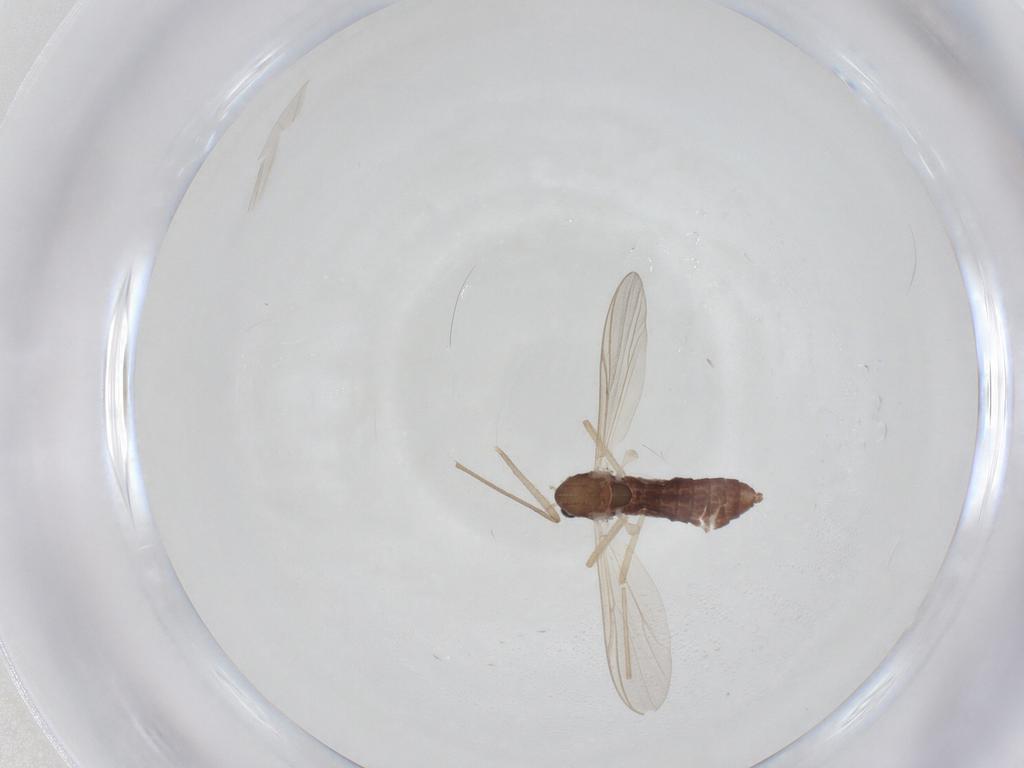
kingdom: Animalia
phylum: Arthropoda
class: Insecta
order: Diptera
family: Chironomidae
